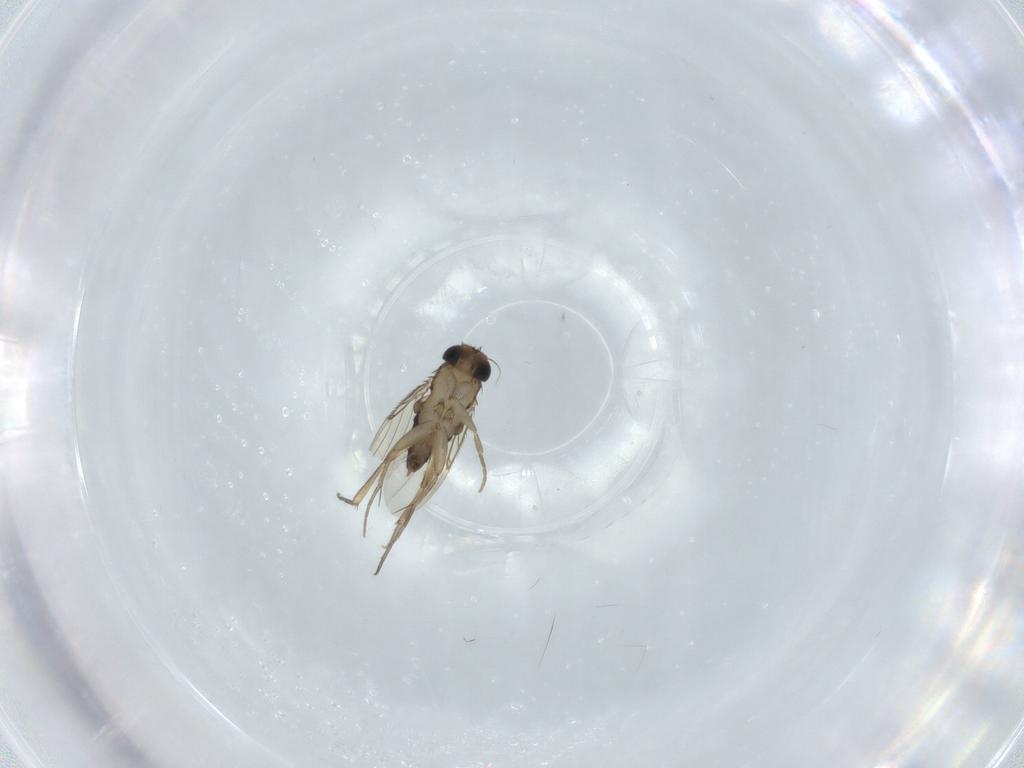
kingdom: Animalia
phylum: Arthropoda
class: Insecta
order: Diptera
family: Phoridae
